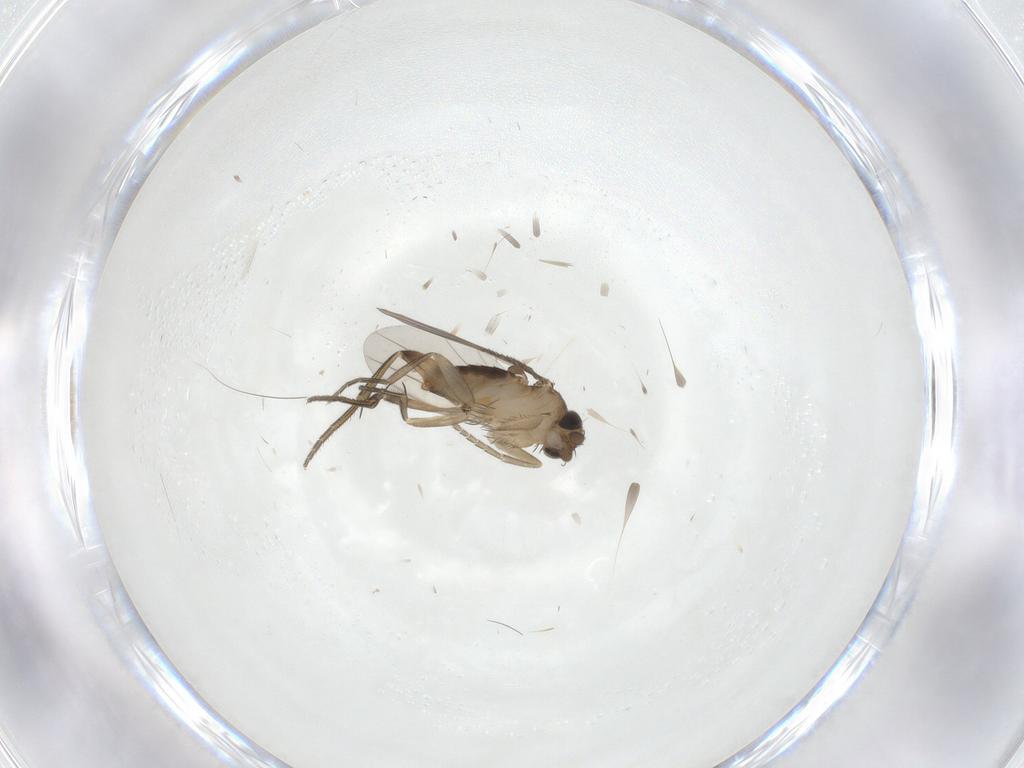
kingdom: Animalia
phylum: Arthropoda
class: Insecta
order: Diptera
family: Phoridae
